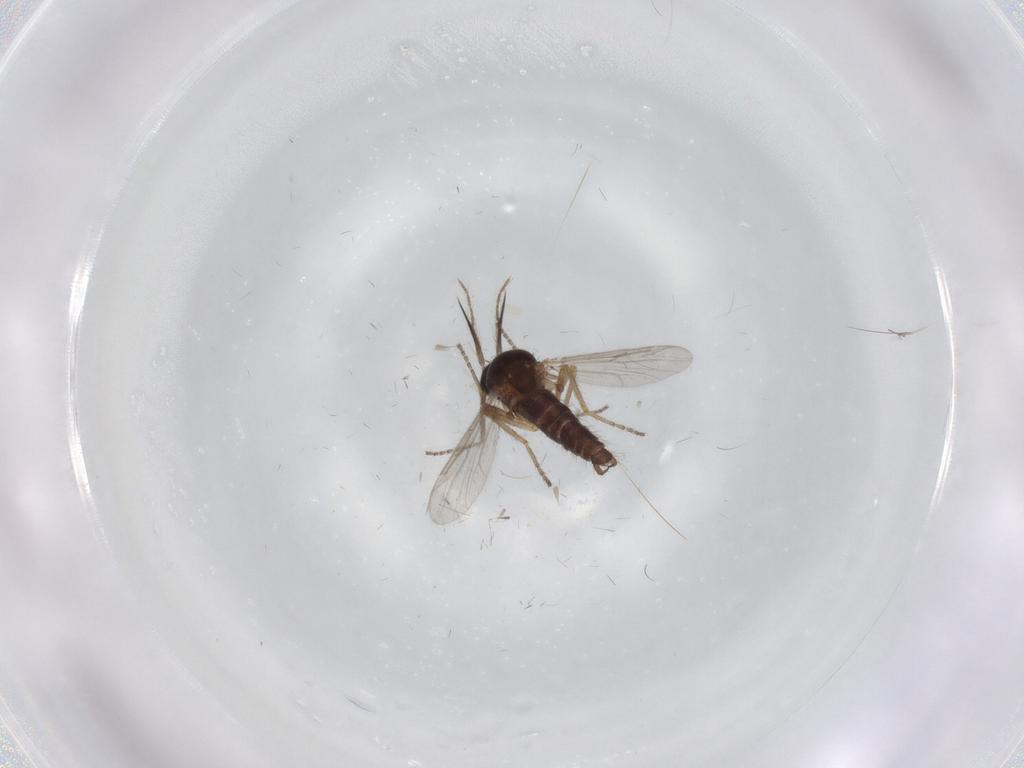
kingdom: Animalia
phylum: Arthropoda
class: Insecta
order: Diptera
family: Ceratopogonidae
